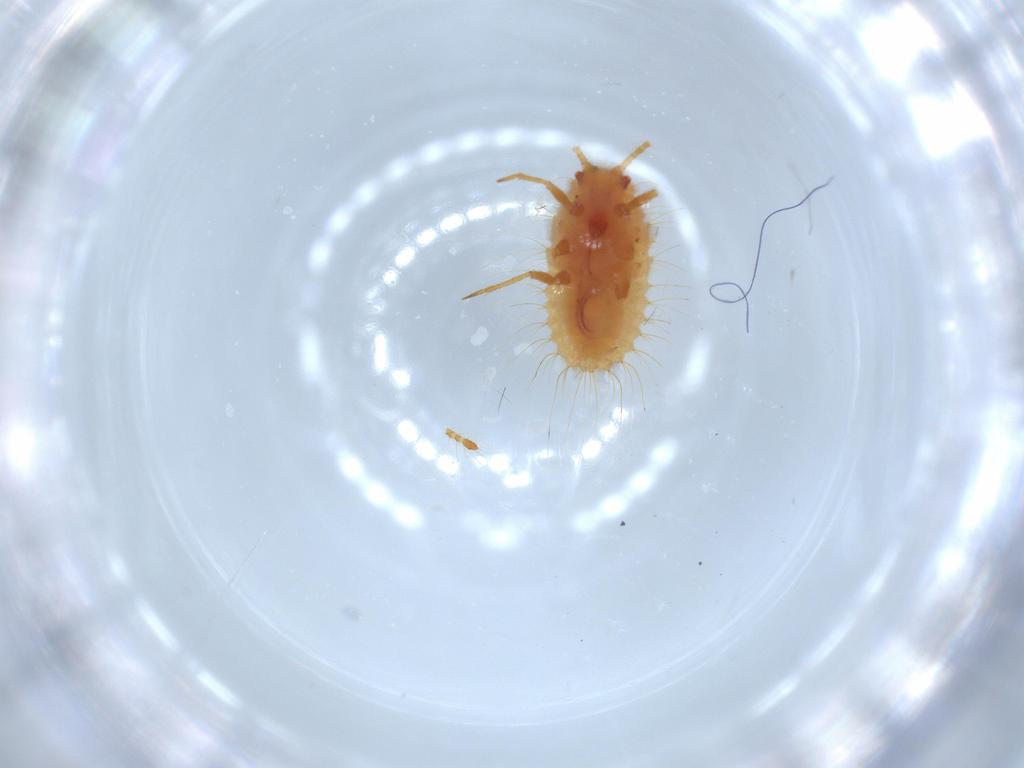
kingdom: Animalia
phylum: Arthropoda
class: Insecta
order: Hemiptera
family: Coccoidea_incertae_sedis
